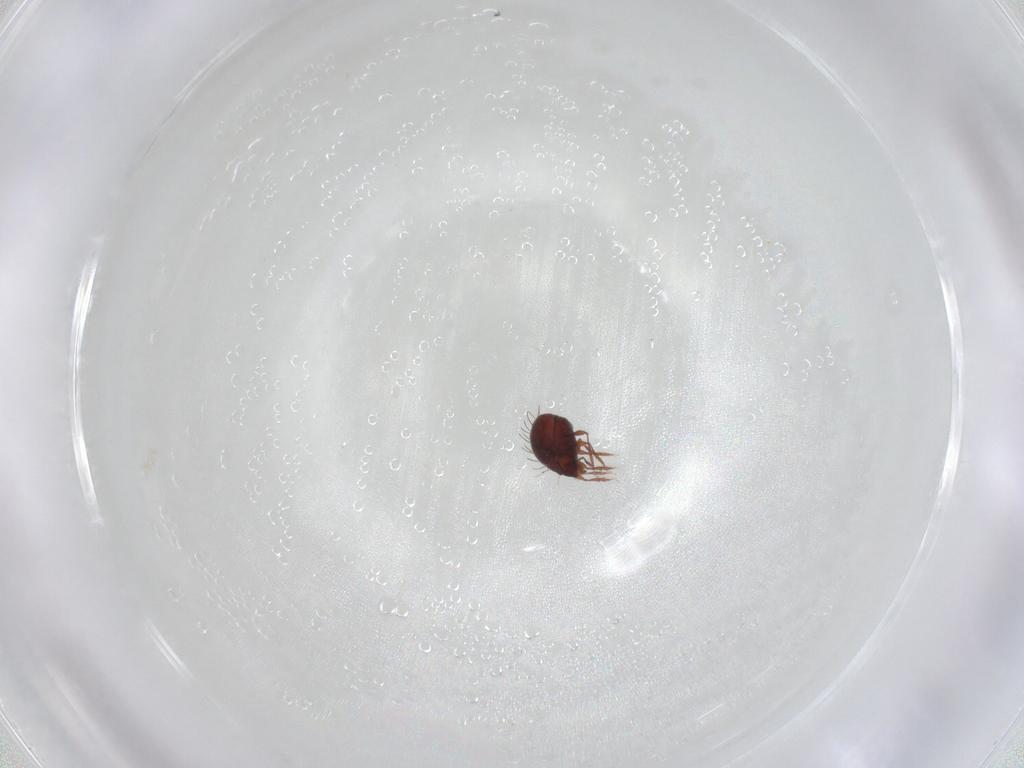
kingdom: Animalia
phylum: Arthropoda
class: Arachnida
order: Sarcoptiformes
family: Caloppiidae
